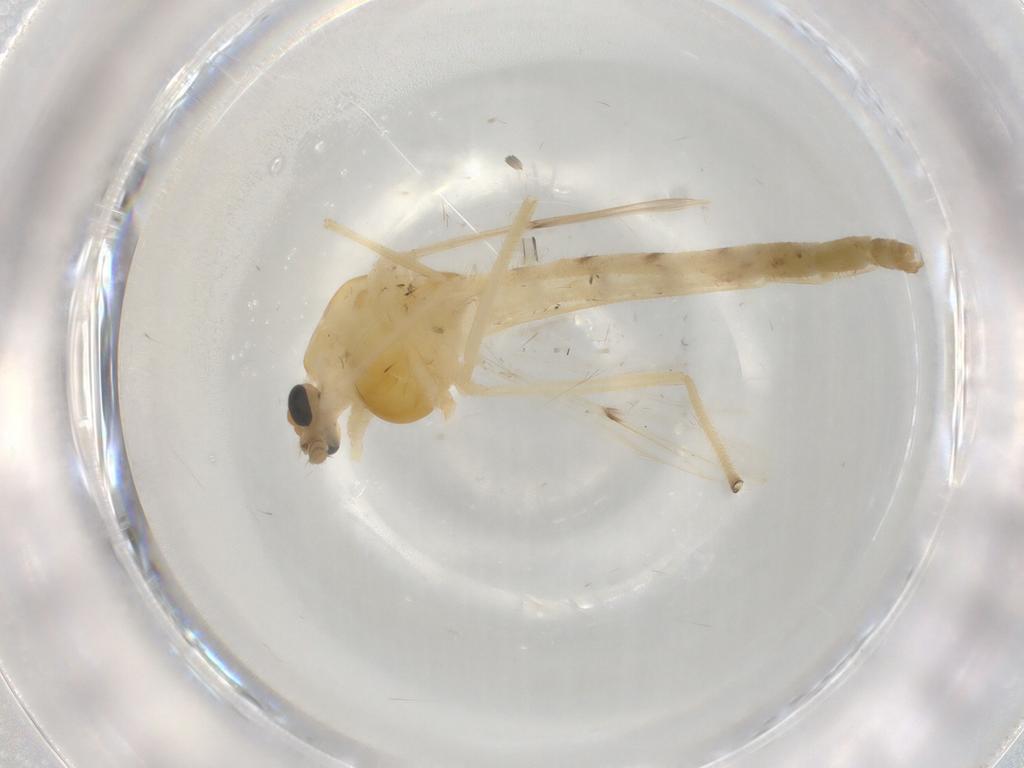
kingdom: Animalia
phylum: Arthropoda
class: Insecta
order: Diptera
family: Chironomidae
